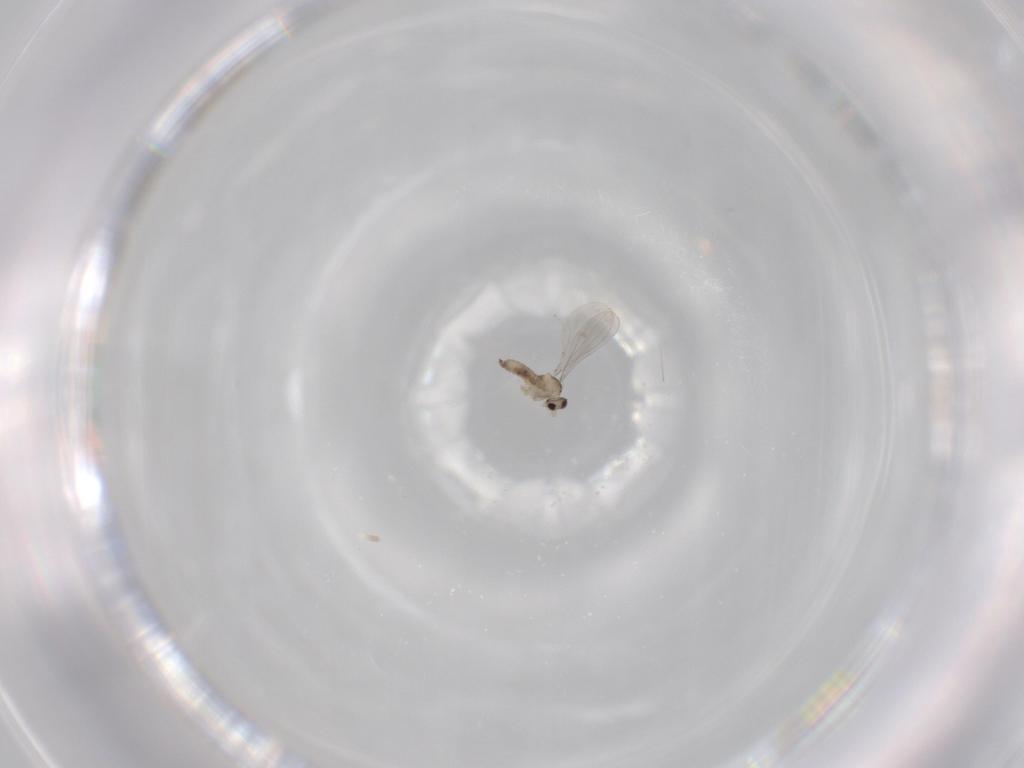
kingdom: Animalia
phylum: Arthropoda
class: Insecta
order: Diptera
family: Cecidomyiidae
